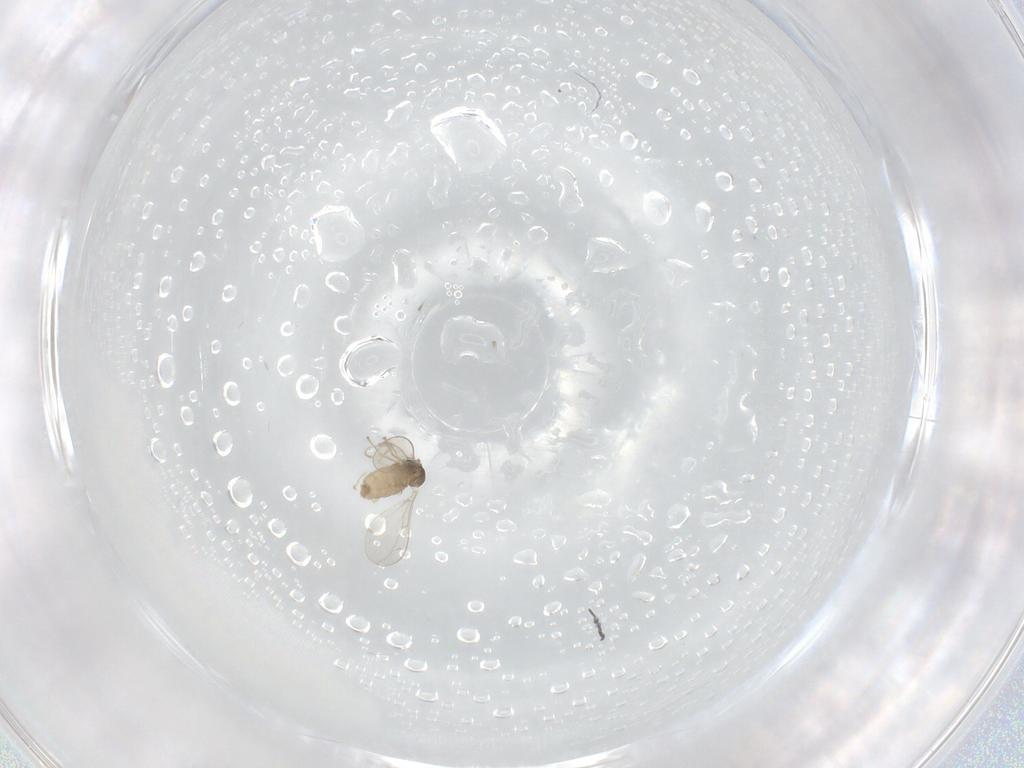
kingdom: Animalia
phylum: Arthropoda
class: Insecta
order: Diptera
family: Cecidomyiidae
